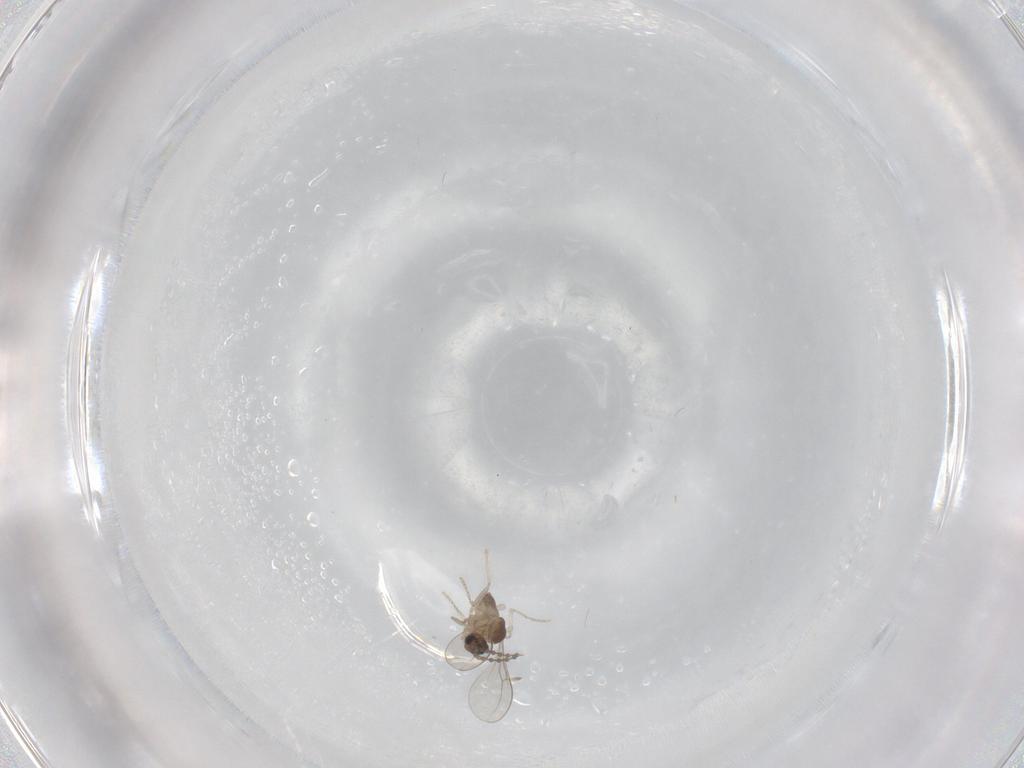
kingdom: Animalia
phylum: Arthropoda
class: Insecta
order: Diptera
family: Cecidomyiidae
